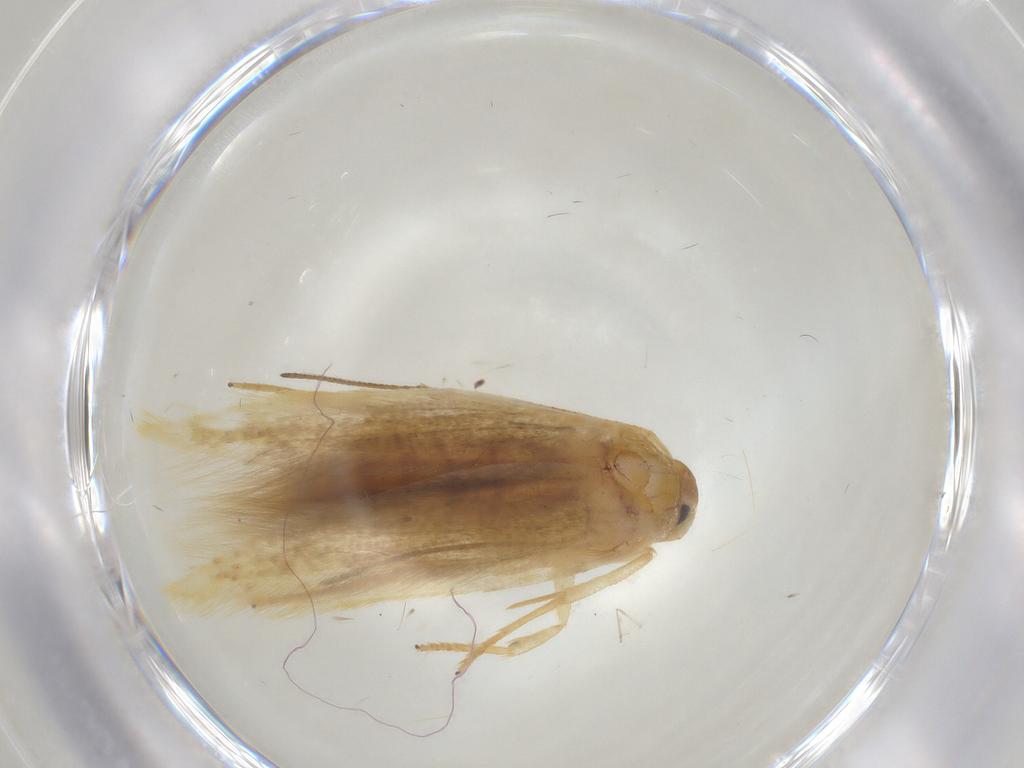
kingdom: Animalia
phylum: Arthropoda
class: Insecta
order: Lepidoptera
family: Oecophoridae
